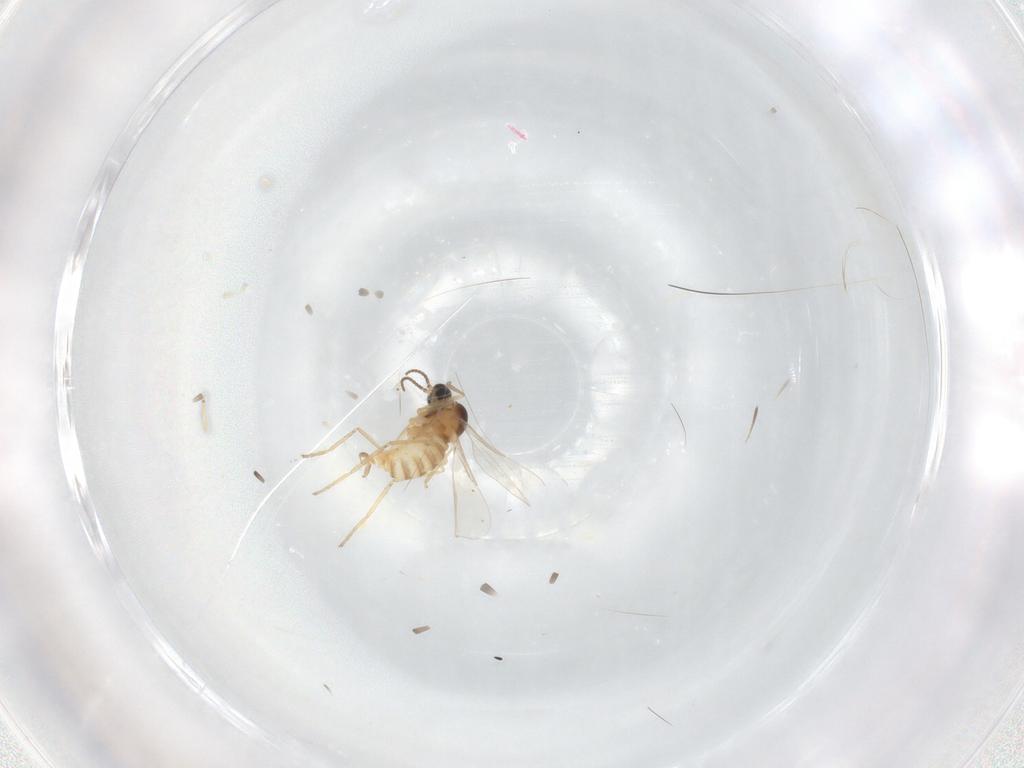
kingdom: Animalia
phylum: Arthropoda
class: Insecta
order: Diptera
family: Cecidomyiidae
